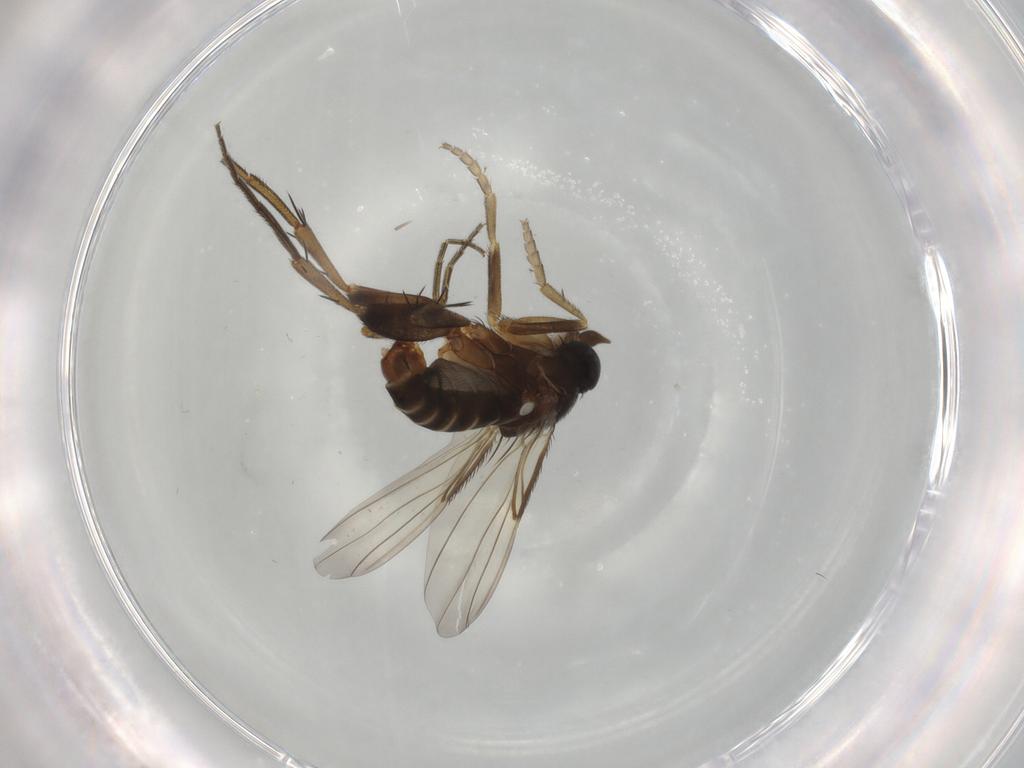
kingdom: Animalia
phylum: Arthropoda
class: Insecta
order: Diptera
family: Phoridae
